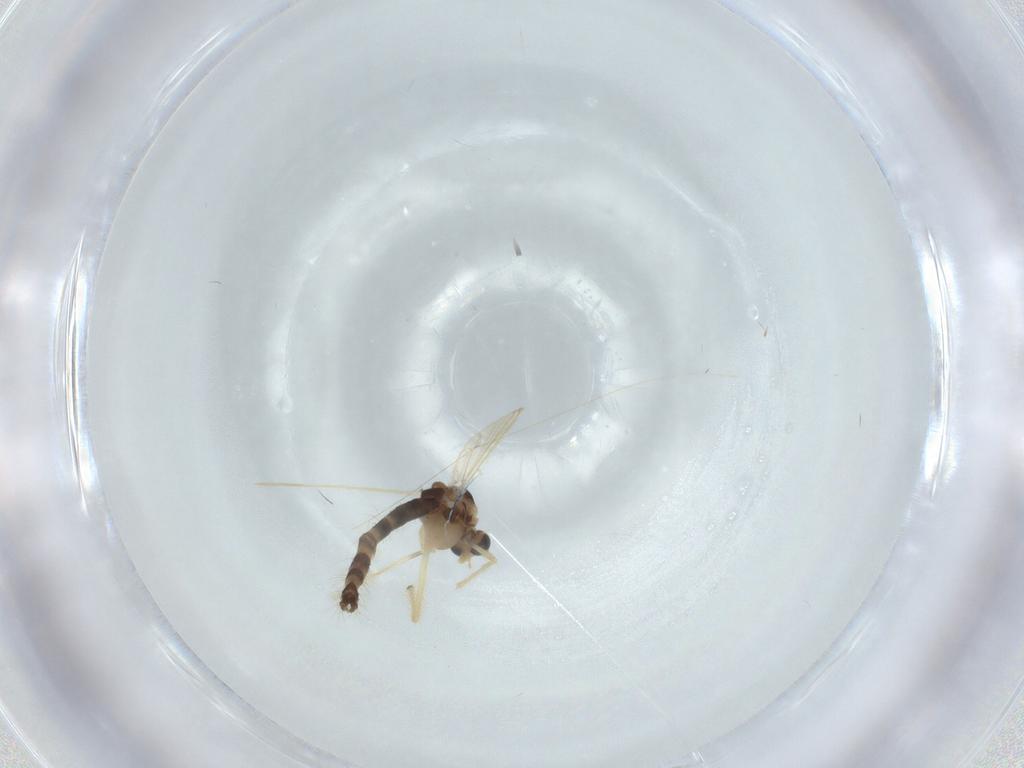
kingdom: Animalia
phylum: Arthropoda
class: Insecta
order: Diptera
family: Chironomidae
